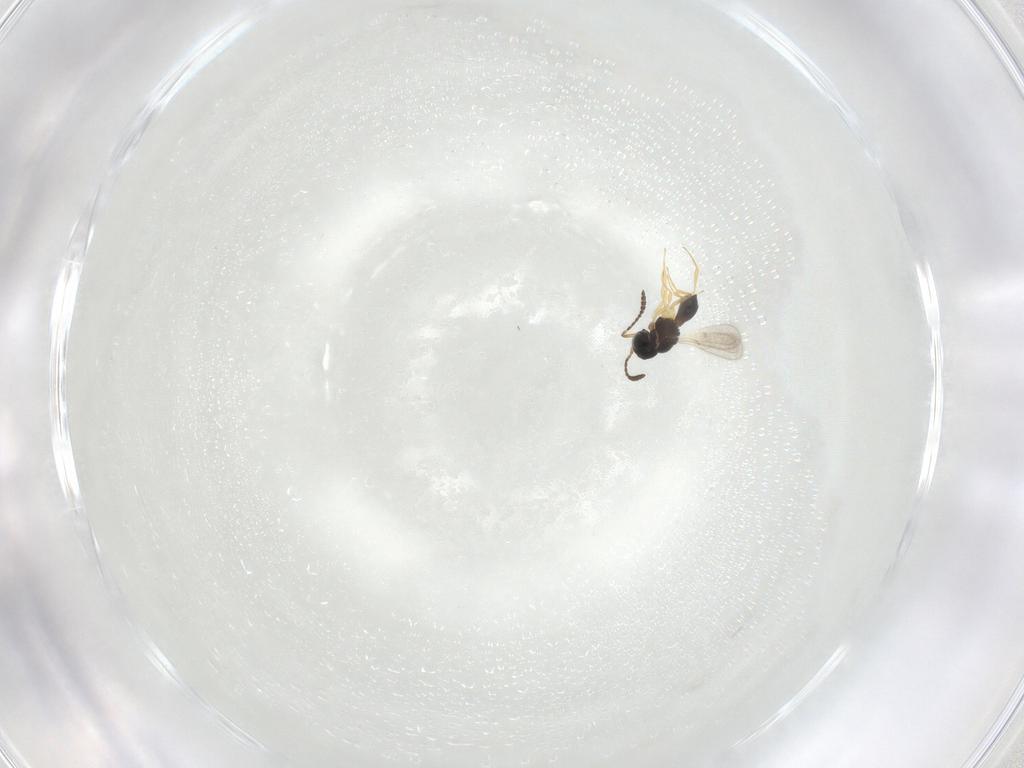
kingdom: Animalia
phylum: Arthropoda
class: Insecta
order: Hymenoptera
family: Scelionidae
